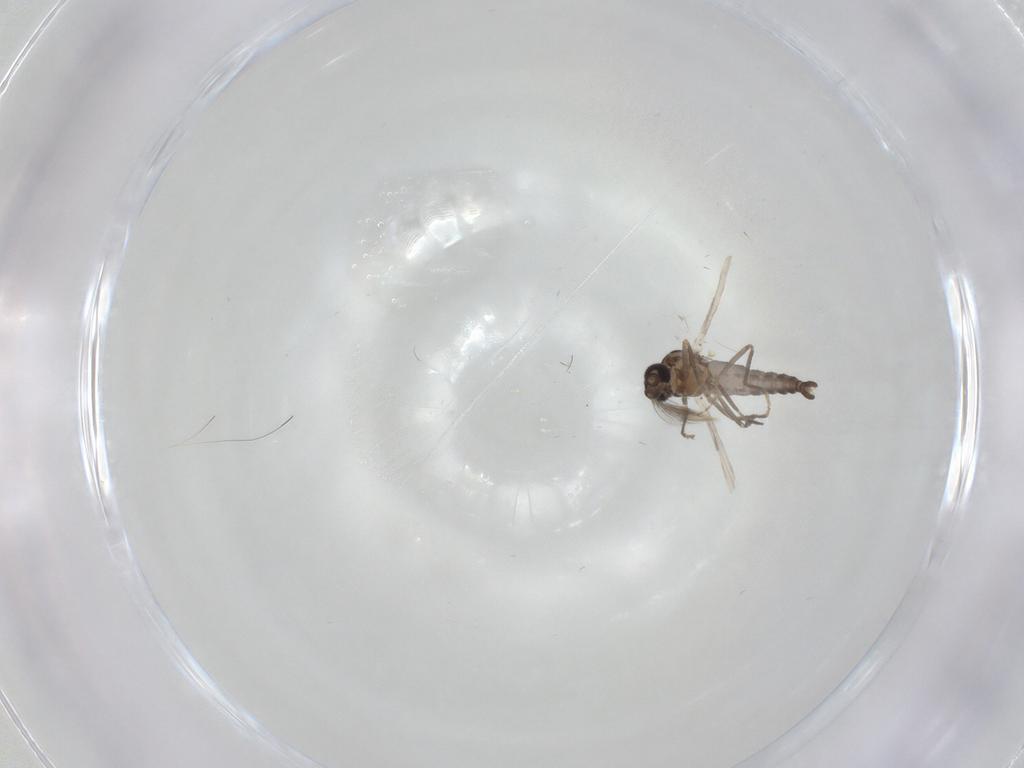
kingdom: Animalia
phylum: Arthropoda
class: Insecta
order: Diptera
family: Ceratopogonidae
